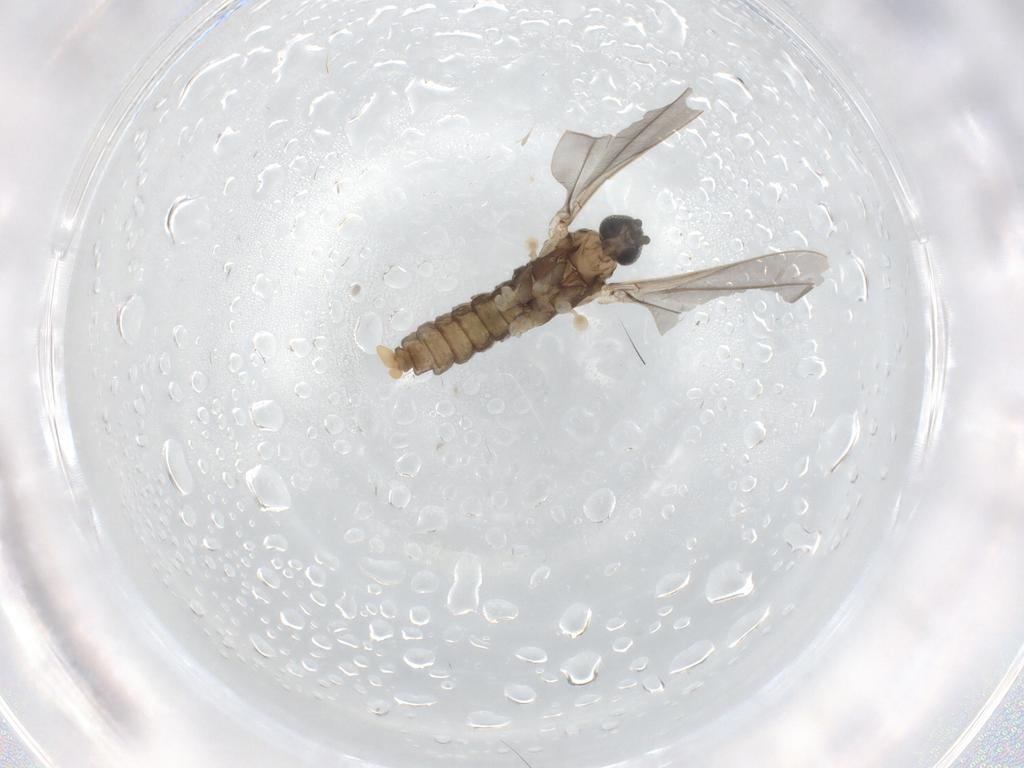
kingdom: Animalia
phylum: Arthropoda
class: Insecta
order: Diptera
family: Cecidomyiidae
